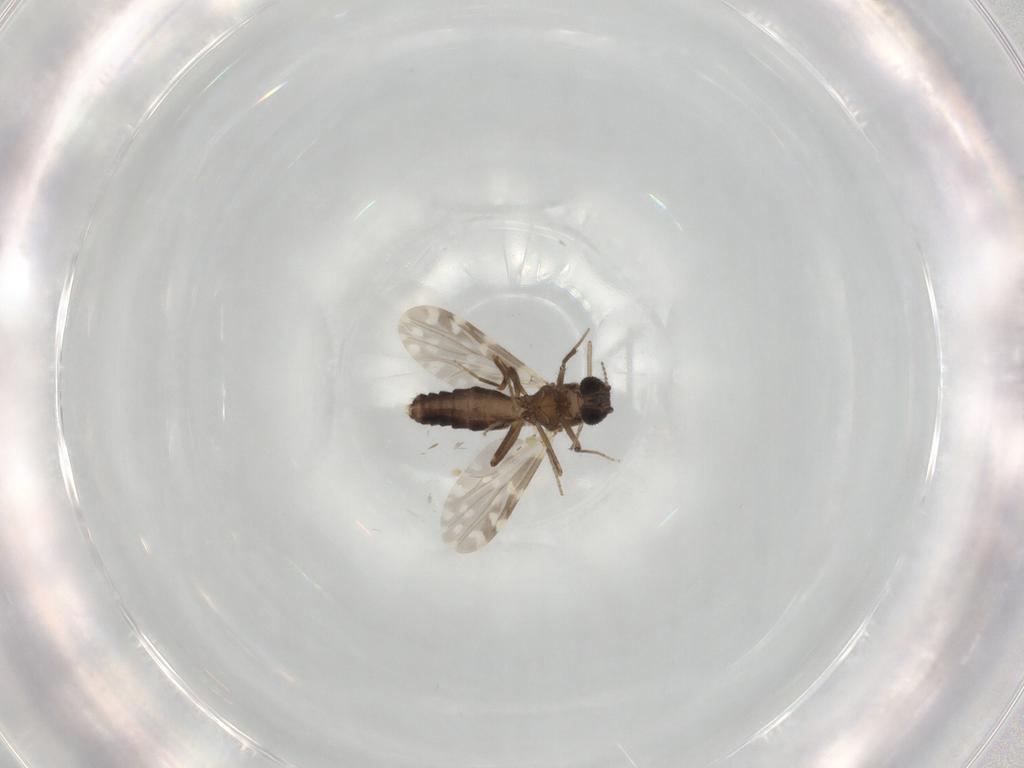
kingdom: Animalia
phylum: Arthropoda
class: Insecta
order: Diptera
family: Ceratopogonidae
